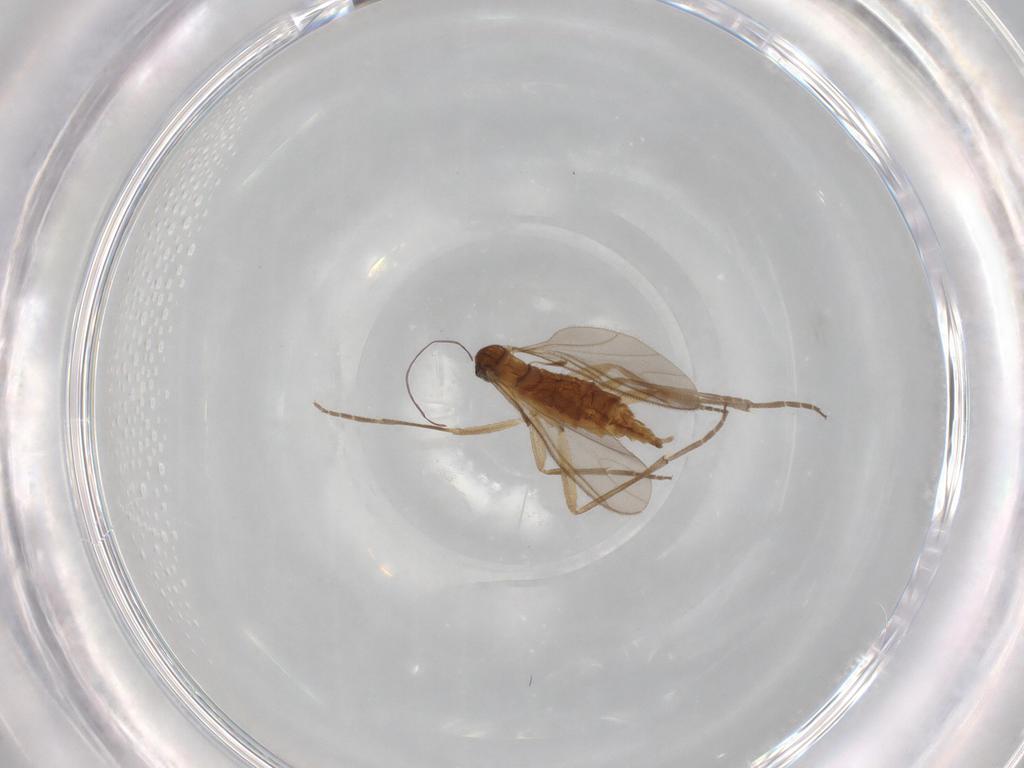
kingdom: Animalia
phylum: Arthropoda
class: Insecta
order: Diptera
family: Sciaridae
